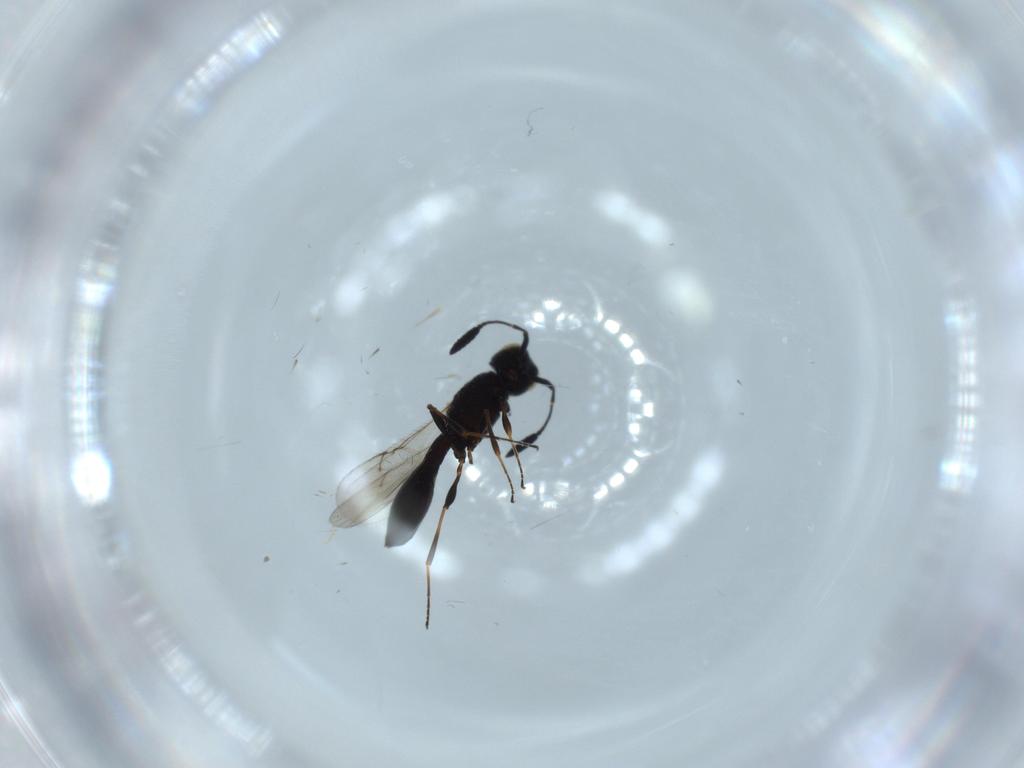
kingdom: Animalia
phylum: Arthropoda
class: Insecta
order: Hymenoptera
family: Scelionidae
